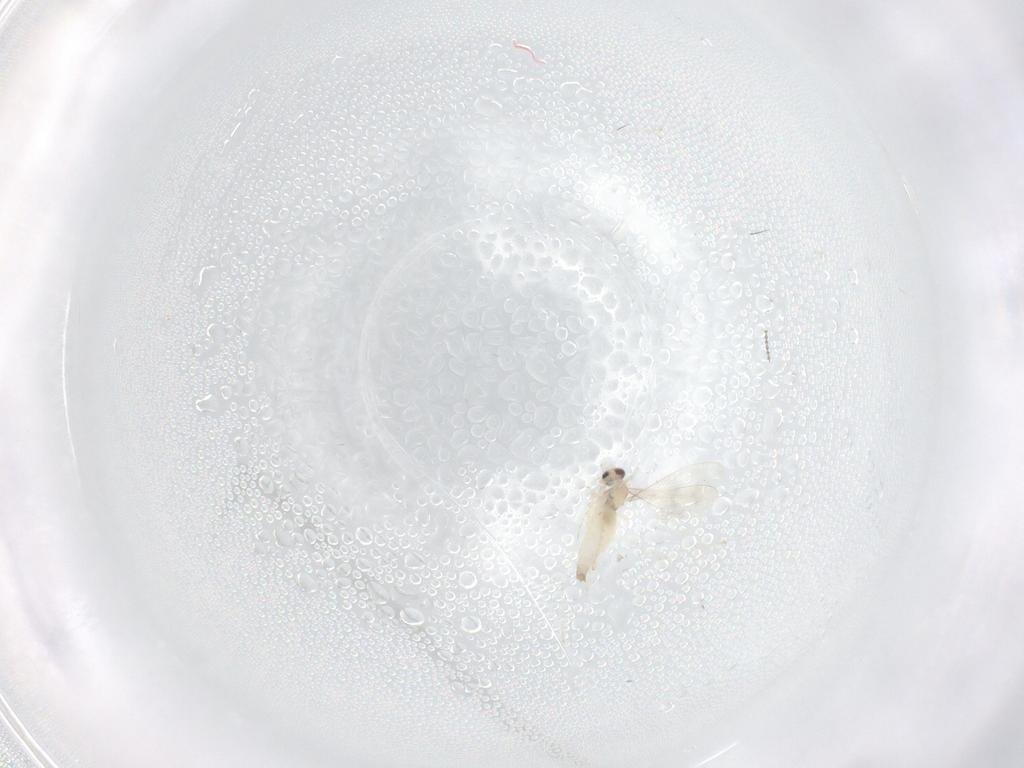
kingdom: Animalia
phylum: Arthropoda
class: Insecta
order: Diptera
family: Cecidomyiidae
